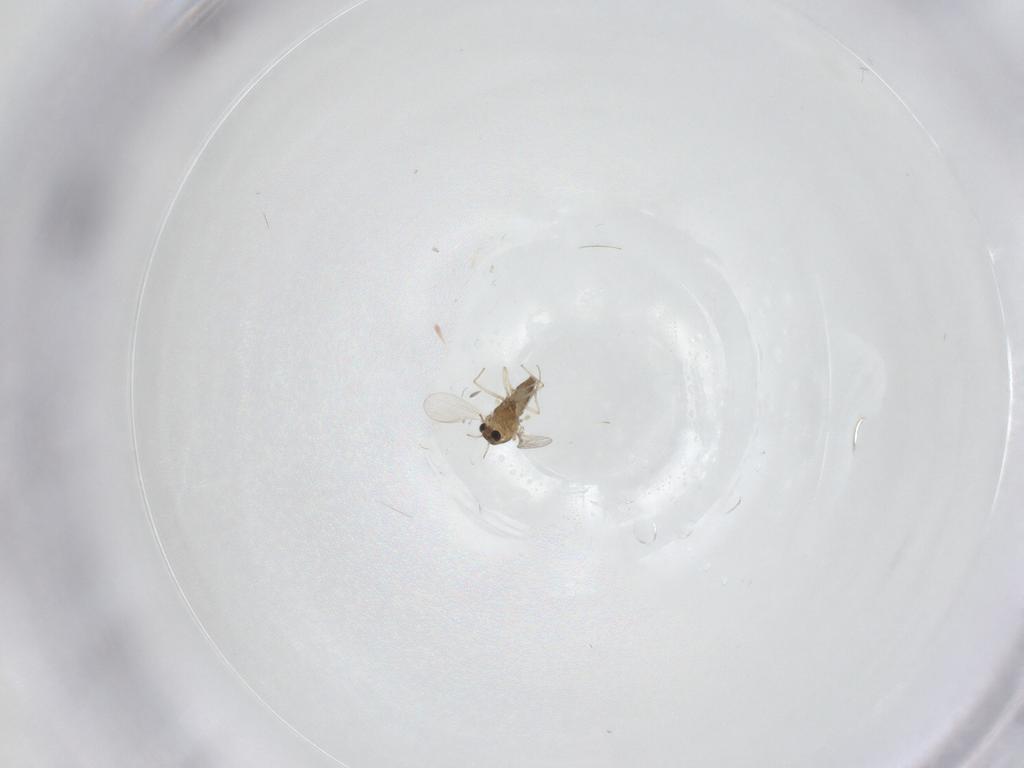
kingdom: Animalia
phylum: Arthropoda
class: Insecta
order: Diptera
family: Chironomidae
